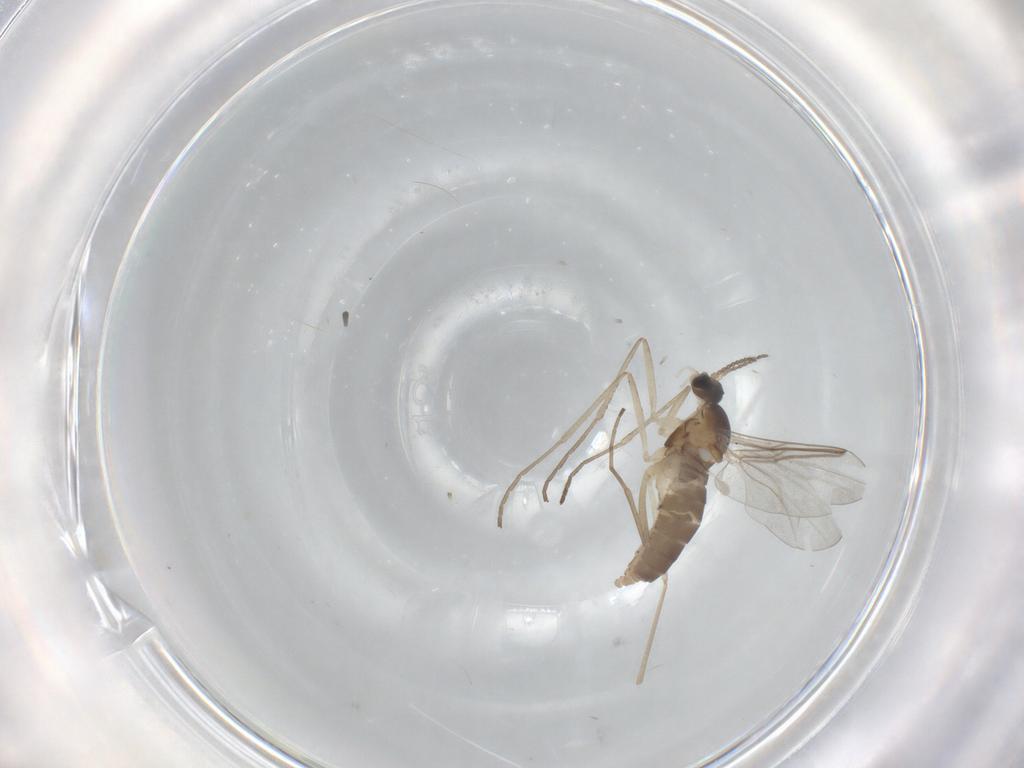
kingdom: Animalia
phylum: Arthropoda
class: Insecta
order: Diptera
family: Cecidomyiidae
